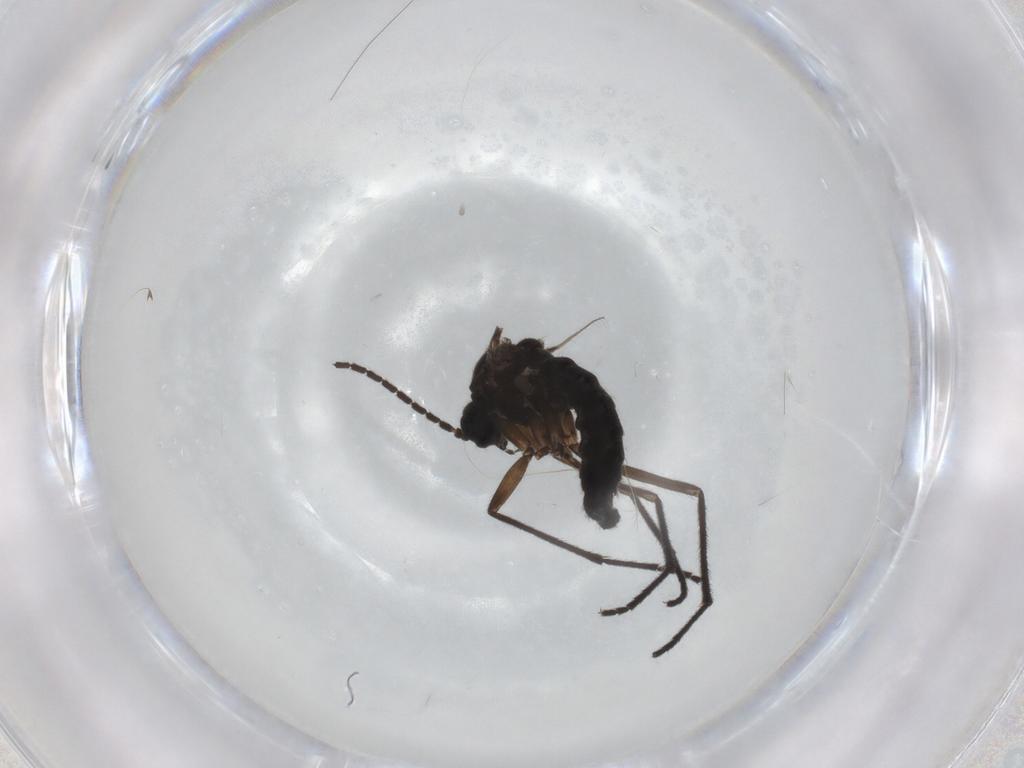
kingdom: Animalia
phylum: Arthropoda
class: Insecta
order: Diptera
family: Sciaridae
